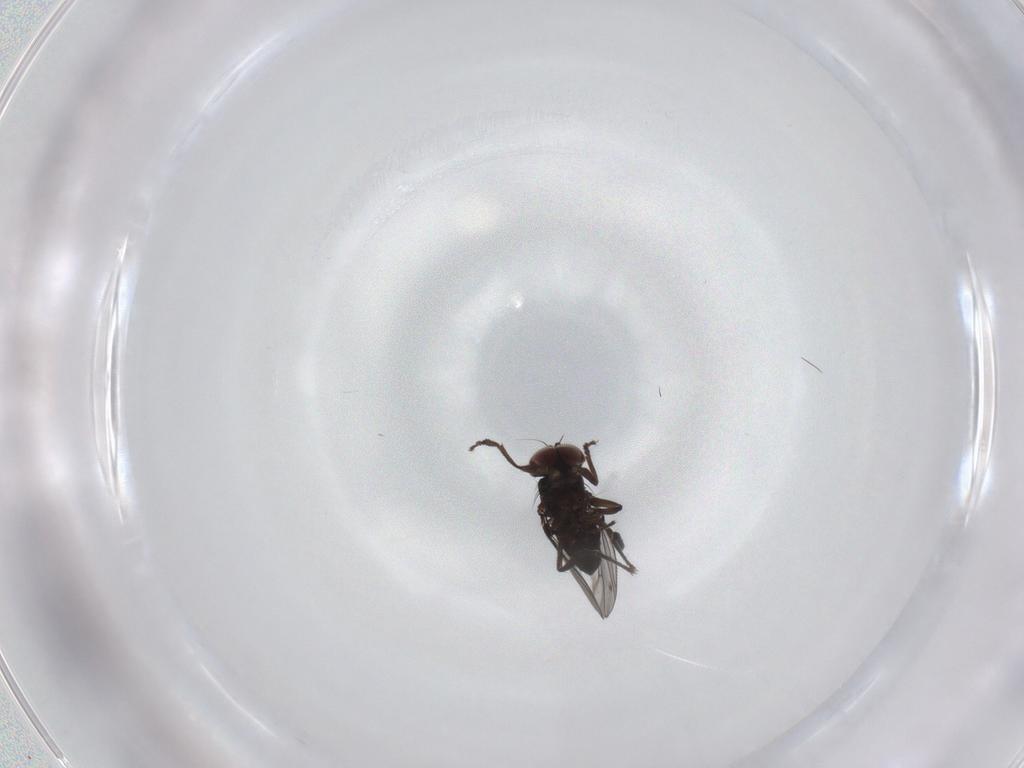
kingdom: Animalia
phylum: Arthropoda
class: Insecta
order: Diptera
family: Dolichopodidae
